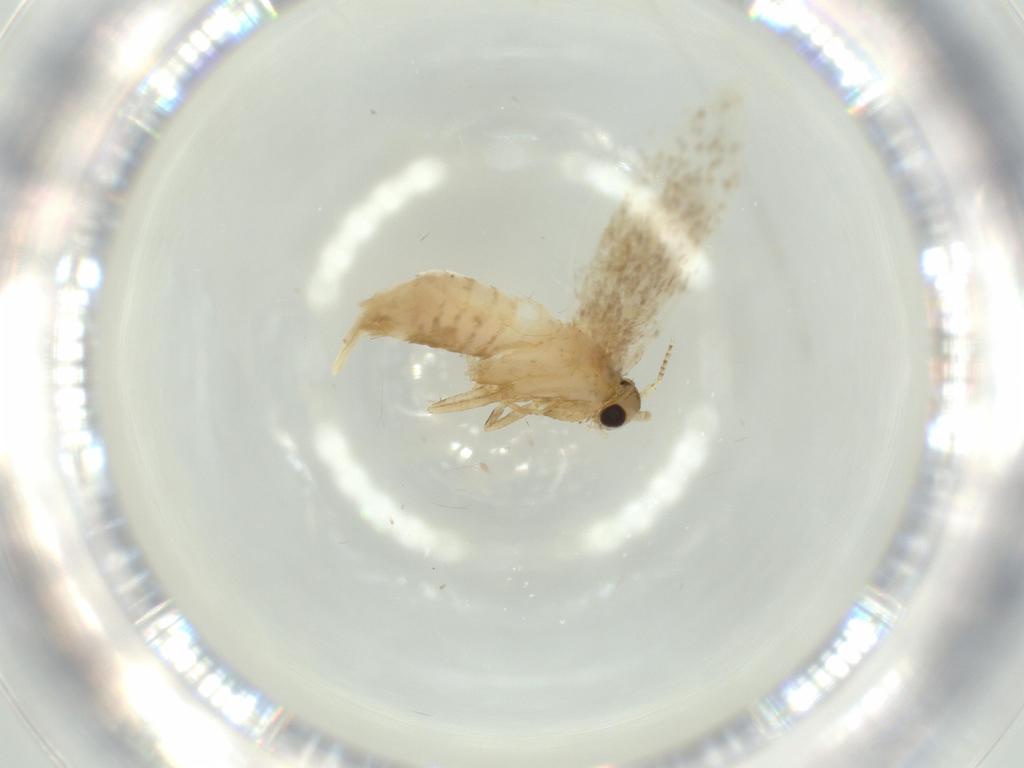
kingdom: Animalia
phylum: Arthropoda
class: Insecta
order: Lepidoptera
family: Tineidae
